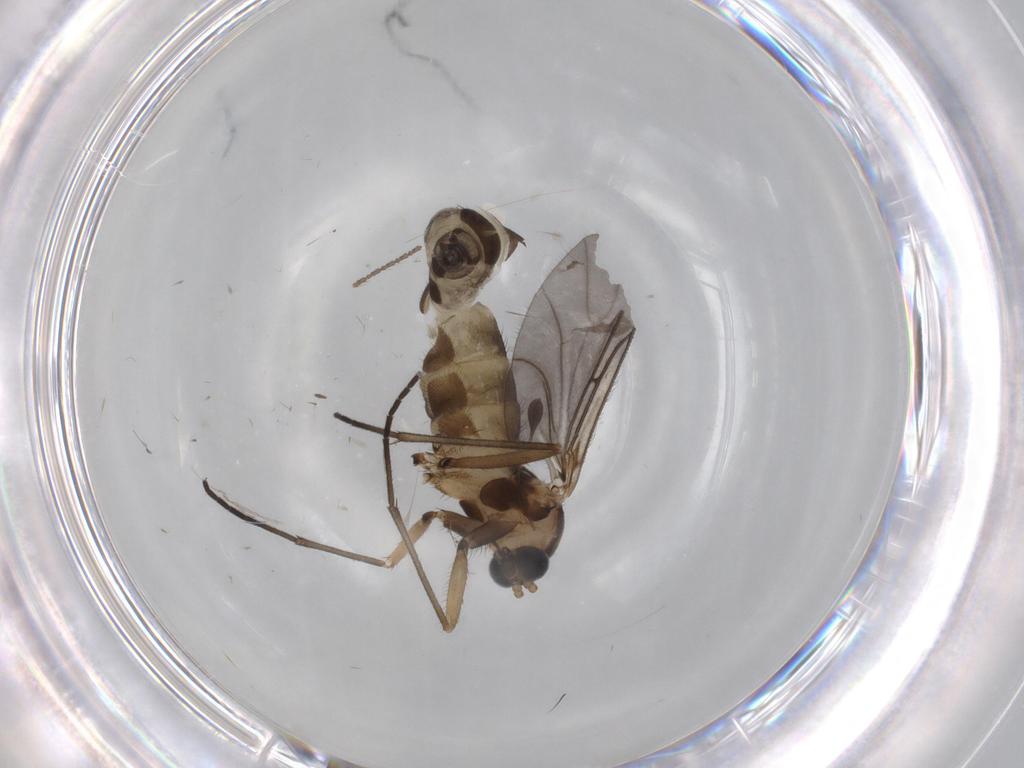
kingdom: Animalia
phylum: Arthropoda
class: Insecta
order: Diptera
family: Sciaridae
